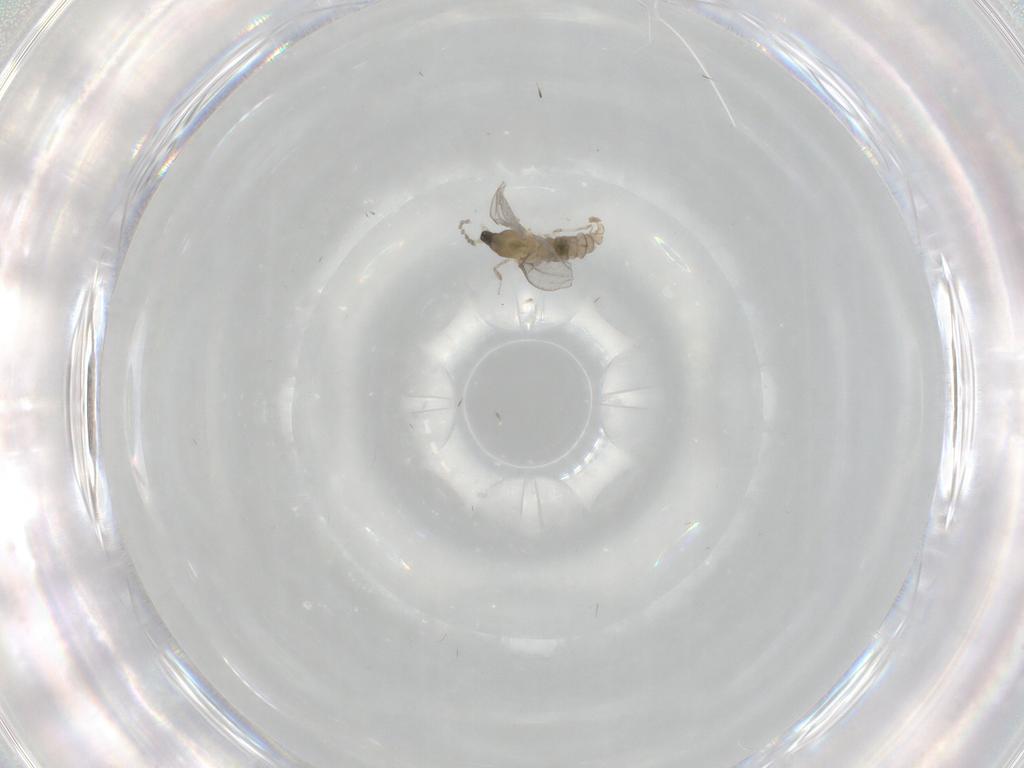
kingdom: Animalia
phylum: Arthropoda
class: Insecta
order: Diptera
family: Cecidomyiidae
